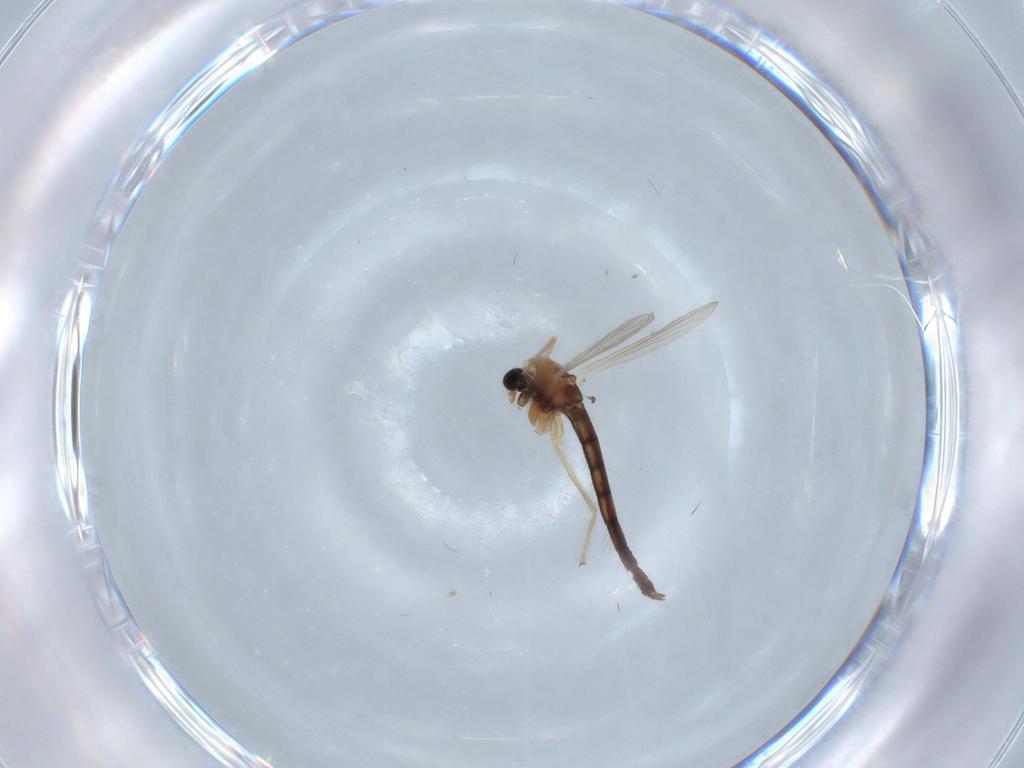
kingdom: Animalia
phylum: Arthropoda
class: Insecta
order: Diptera
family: Chironomidae
